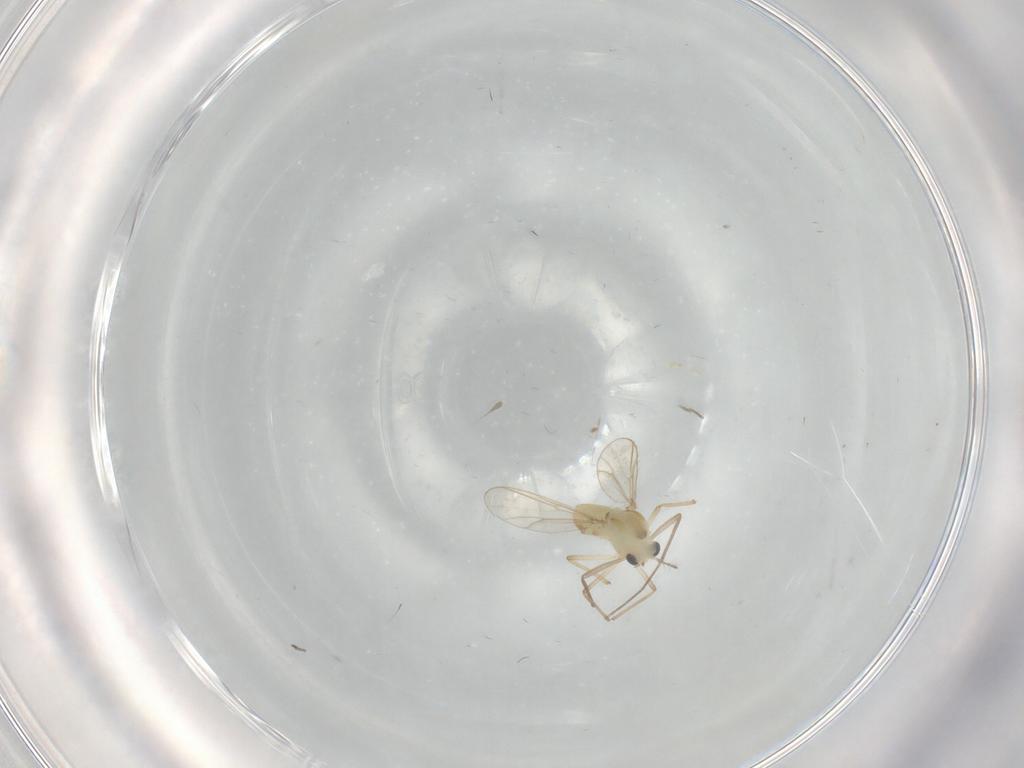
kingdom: Animalia
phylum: Arthropoda
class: Insecta
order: Diptera
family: Chironomidae
